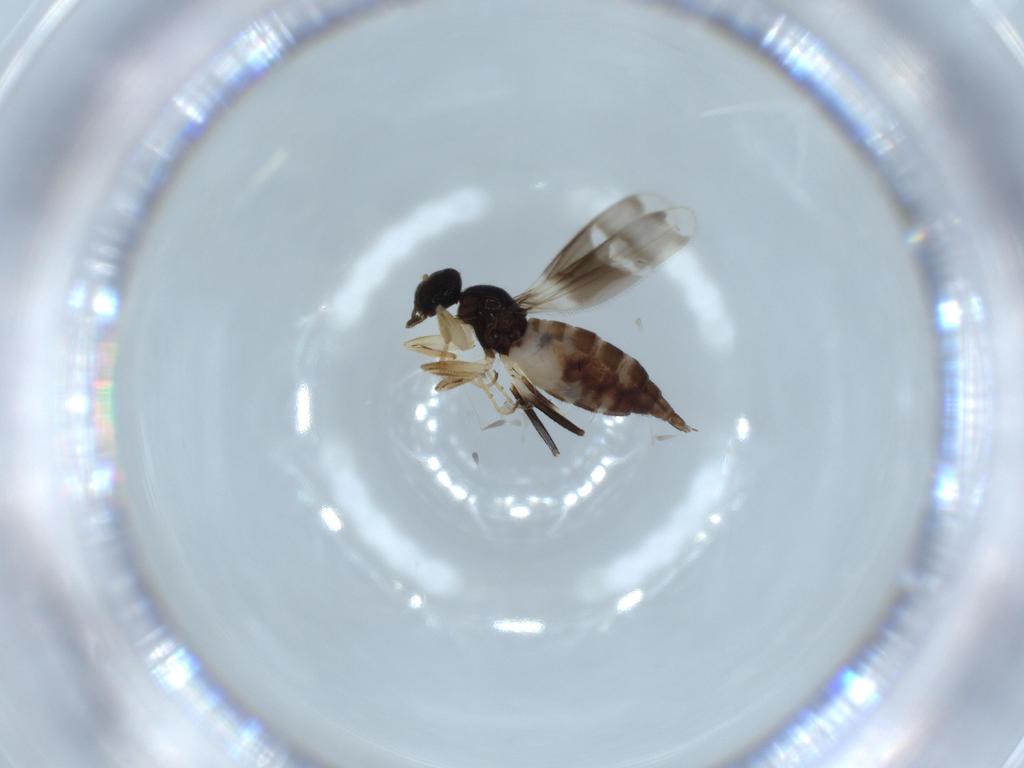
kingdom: Animalia
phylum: Arthropoda
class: Insecta
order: Diptera
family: Hybotidae
